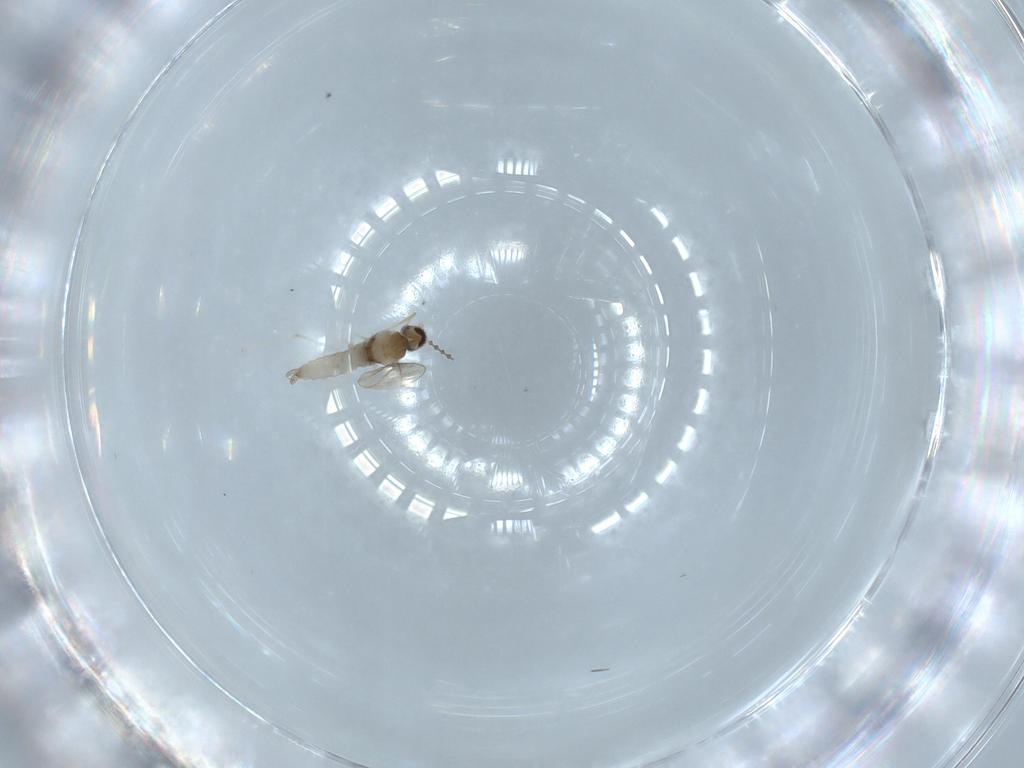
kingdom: Animalia
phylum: Arthropoda
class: Insecta
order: Diptera
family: Cecidomyiidae
